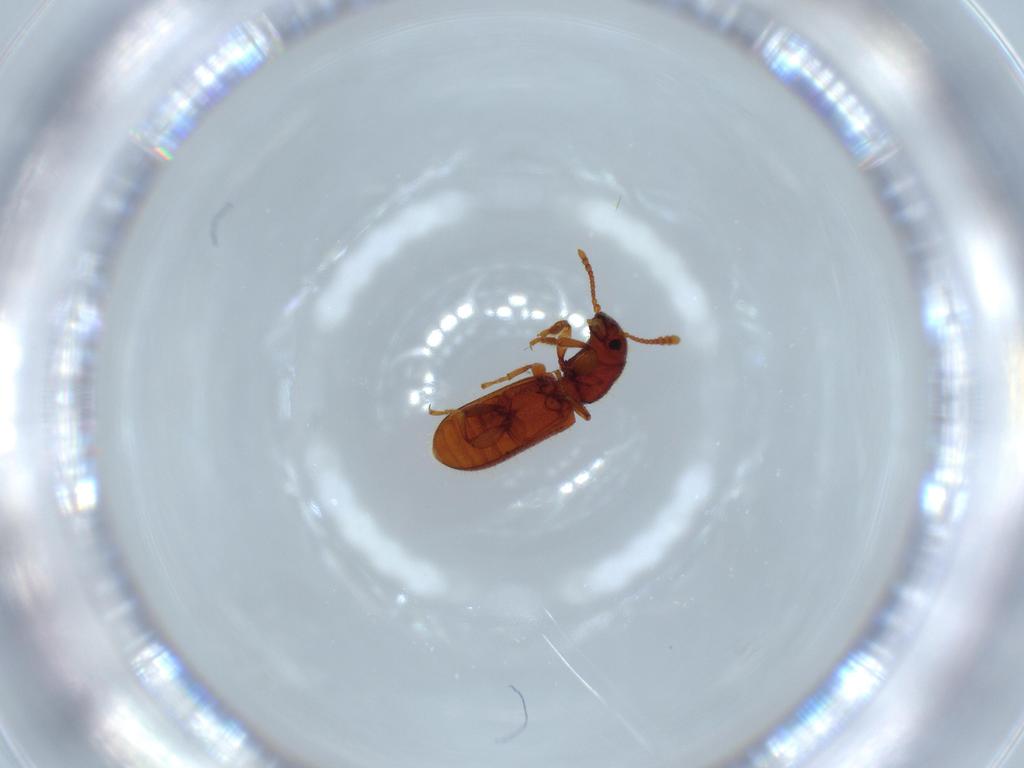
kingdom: Animalia
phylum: Arthropoda
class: Insecta
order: Coleoptera
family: Thanerocleridae
